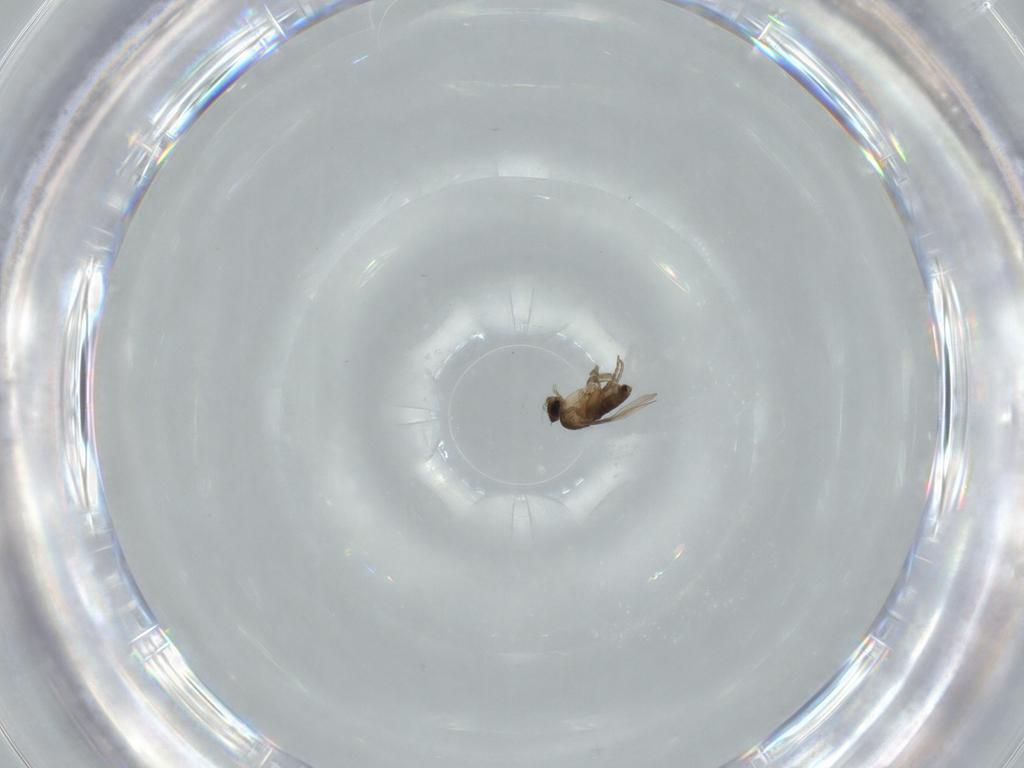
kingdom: Animalia
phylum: Arthropoda
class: Insecta
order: Diptera
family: Phoridae
